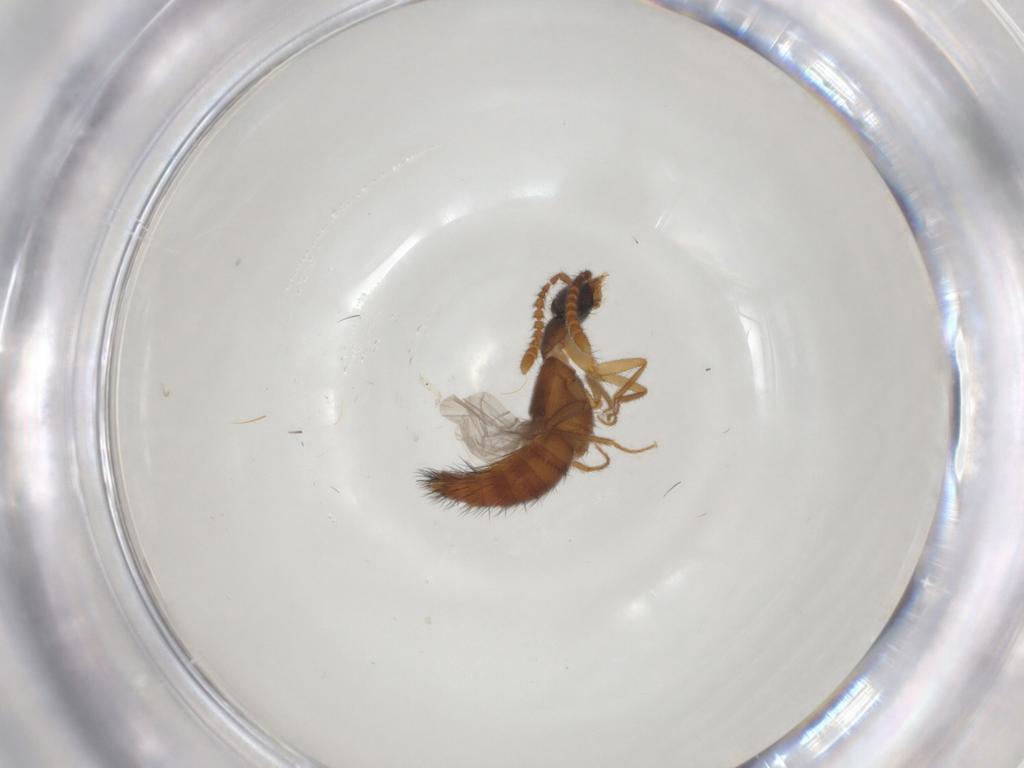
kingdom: Animalia
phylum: Arthropoda
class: Insecta
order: Coleoptera
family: Staphylinidae
